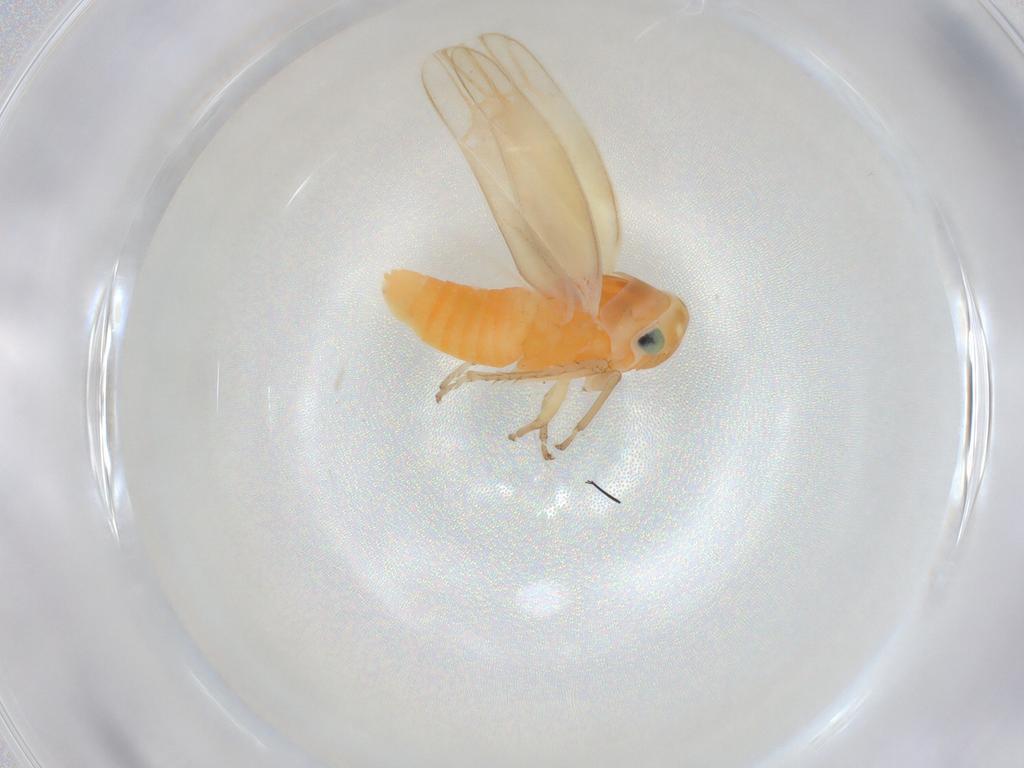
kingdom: Animalia
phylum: Arthropoda
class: Insecta
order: Hemiptera
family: Cicadellidae
